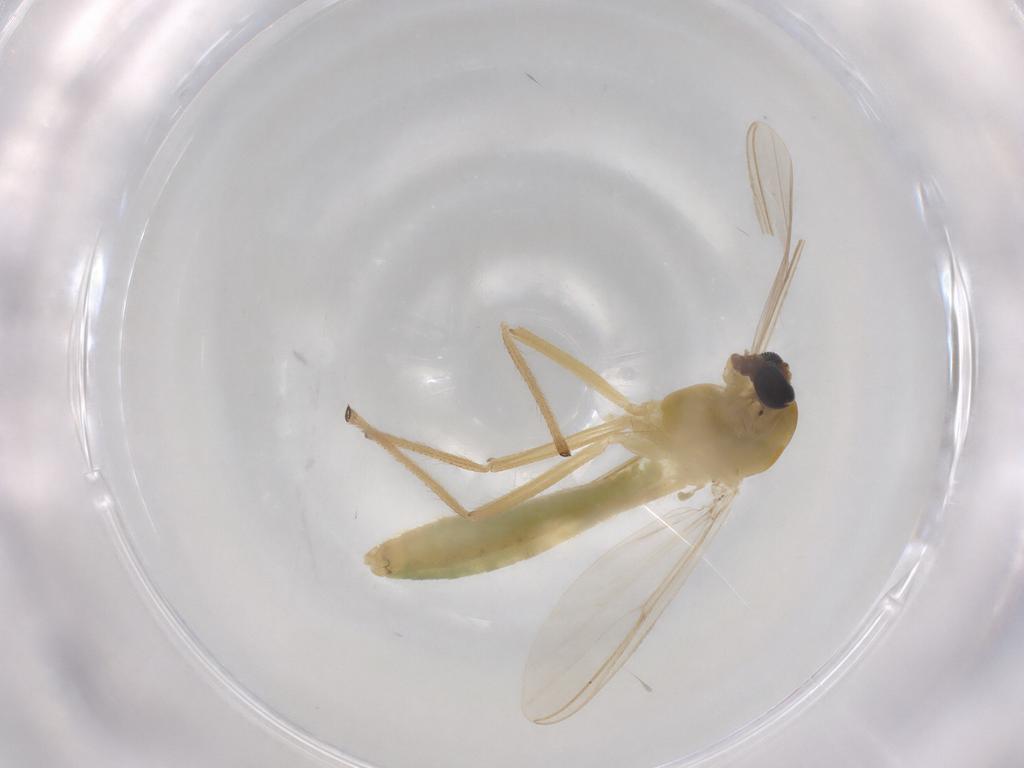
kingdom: Animalia
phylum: Arthropoda
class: Insecta
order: Diptera
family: Chironomidae
